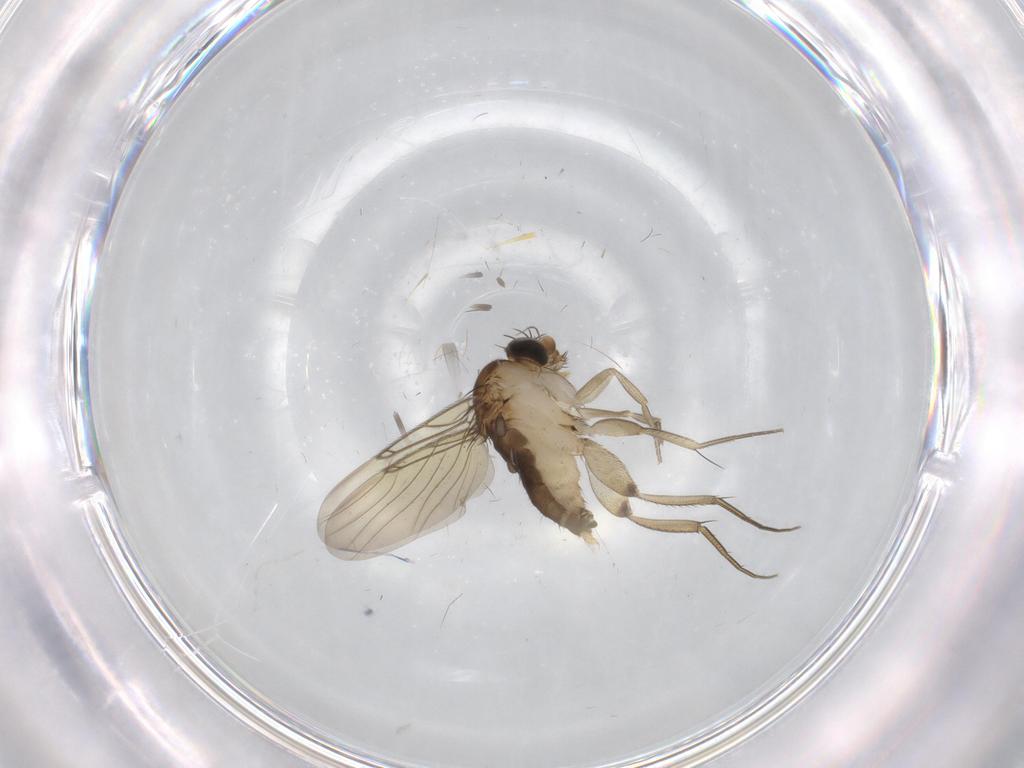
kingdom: Animalia
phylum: Arthropoda
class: Insecta
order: Diptera
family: Phoridae
